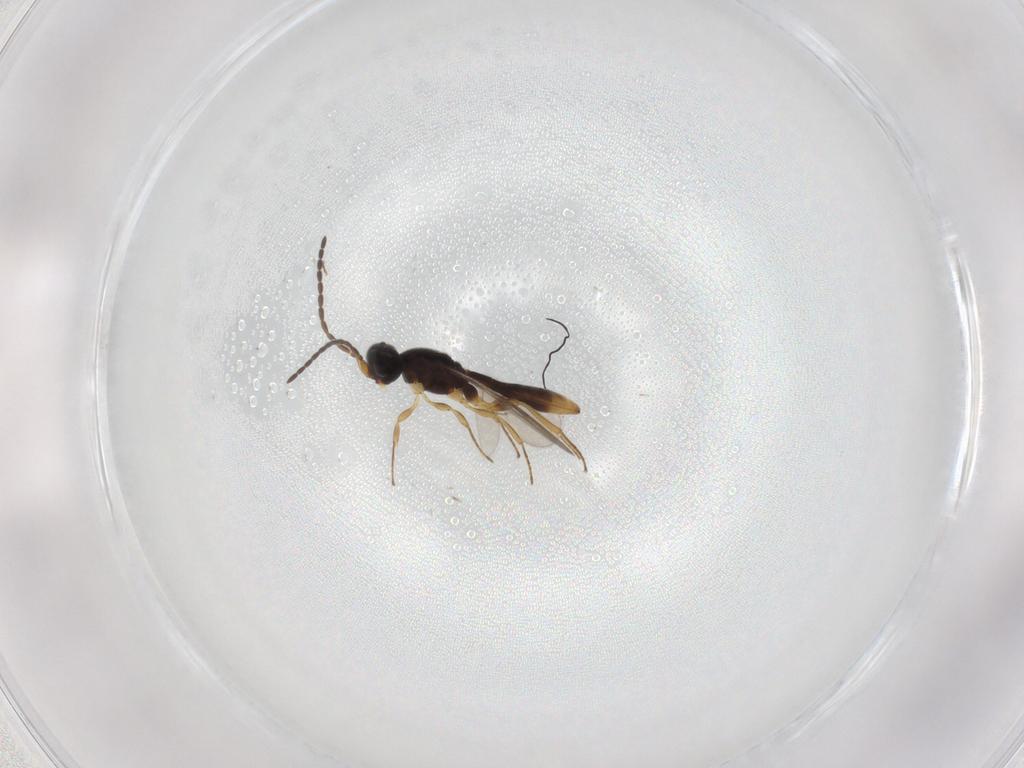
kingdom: Animalia
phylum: Arthropoda
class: Insecta
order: Hymenoptera
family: Scelionidae
